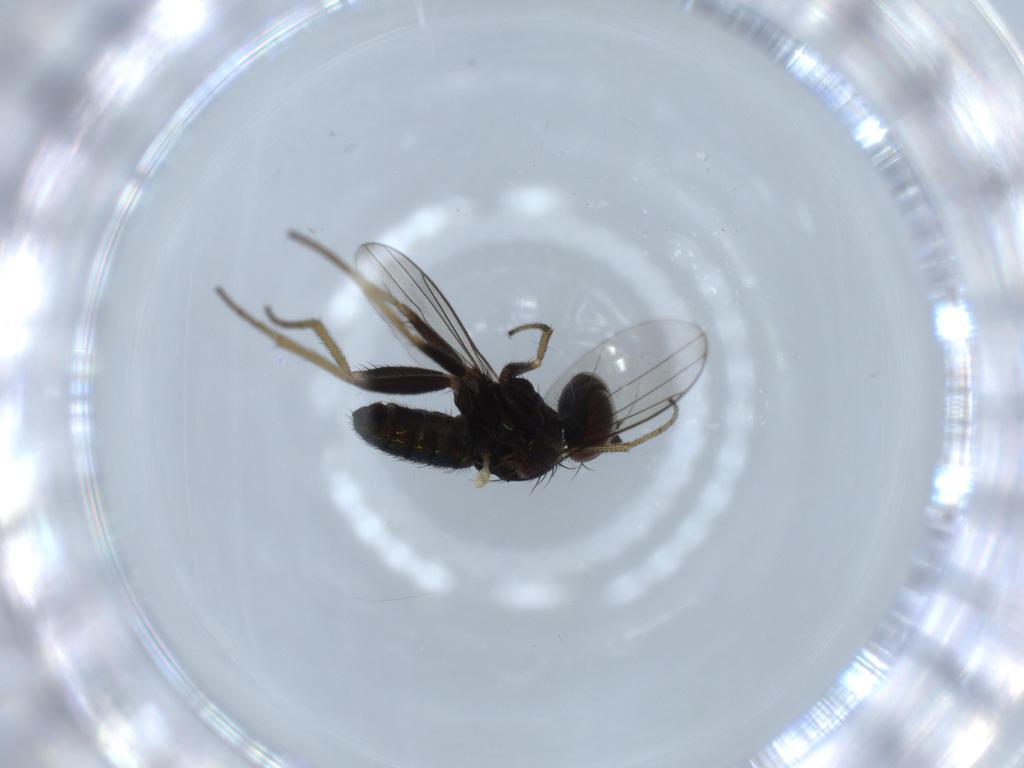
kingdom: Animalia
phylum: Arthropoda
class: Insecta
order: Diptera
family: Dolichopodidae
